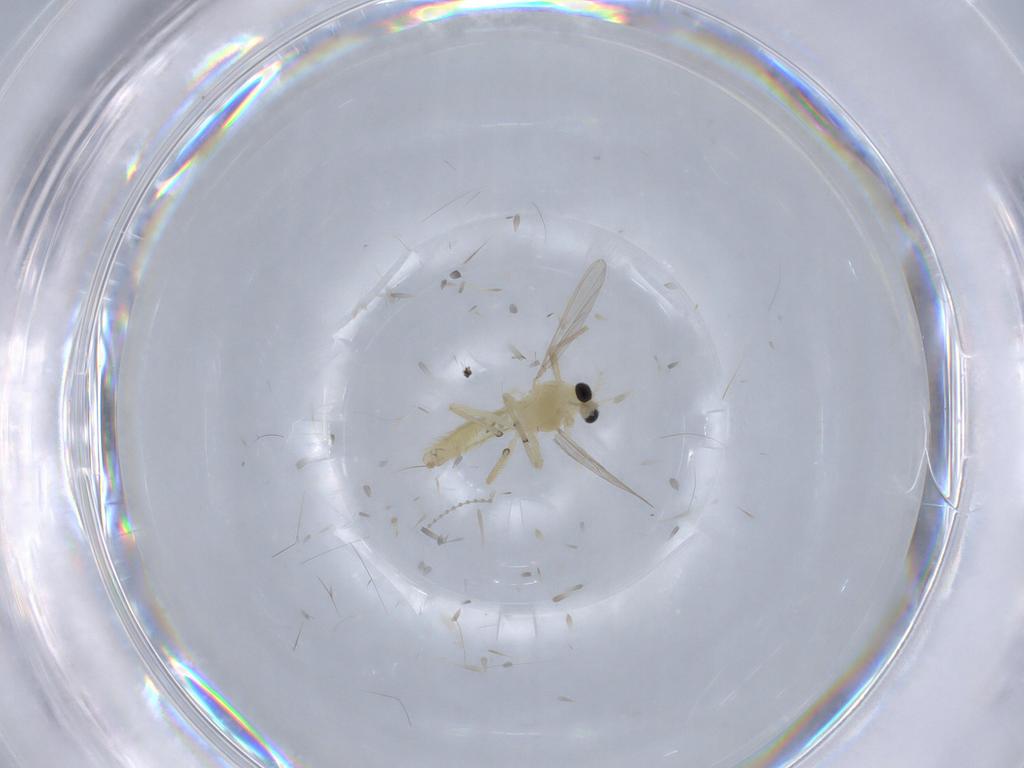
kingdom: Animalia
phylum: Arthropoda
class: Insecta
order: Diptera
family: Chironomidae
